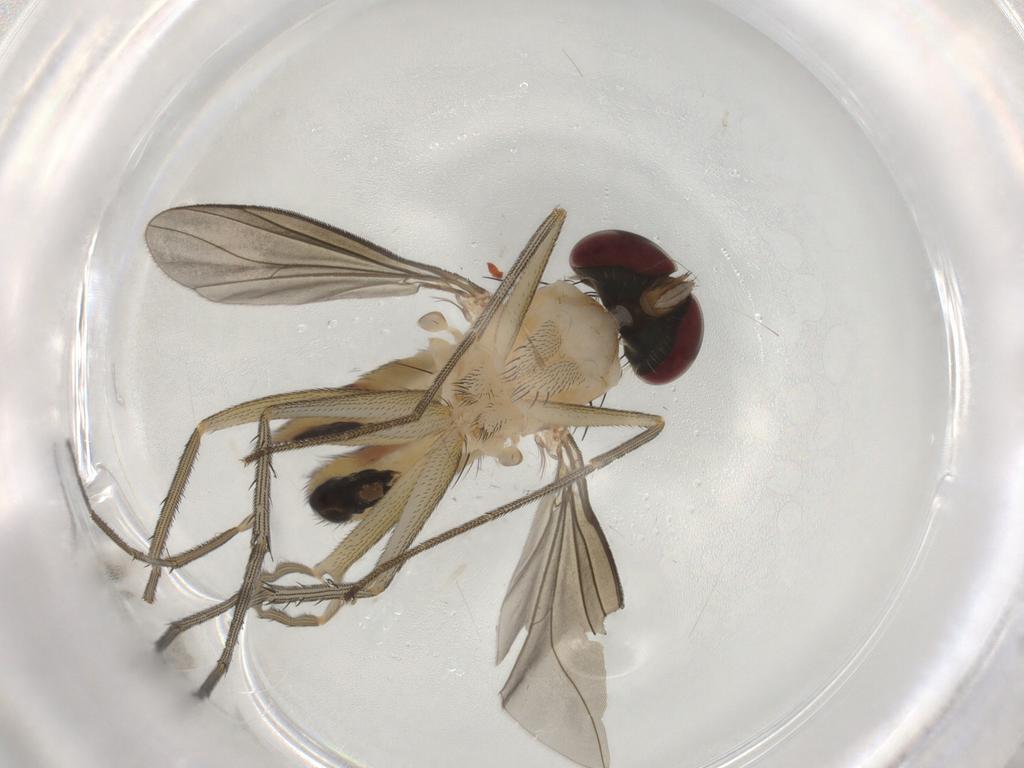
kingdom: Animalia
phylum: Arthropoda
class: Insecta
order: Diptera
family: Dolichopodidae
